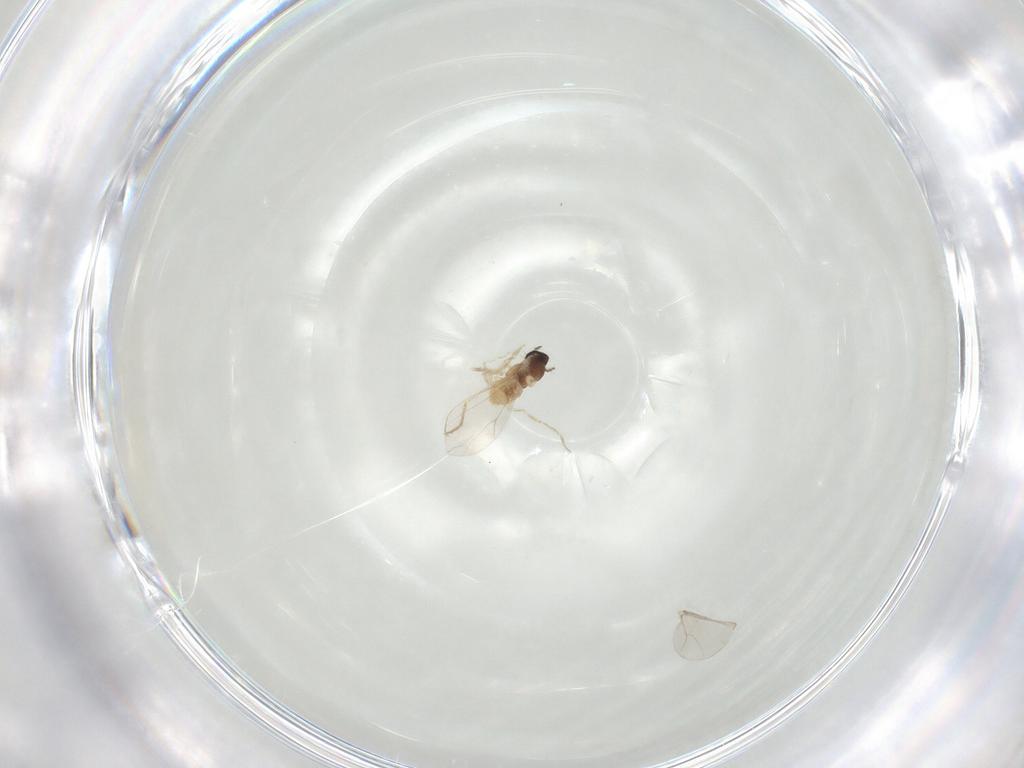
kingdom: Animalia
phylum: Arthropoda
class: Insecta
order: Diptera
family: Cecidomyiidae
